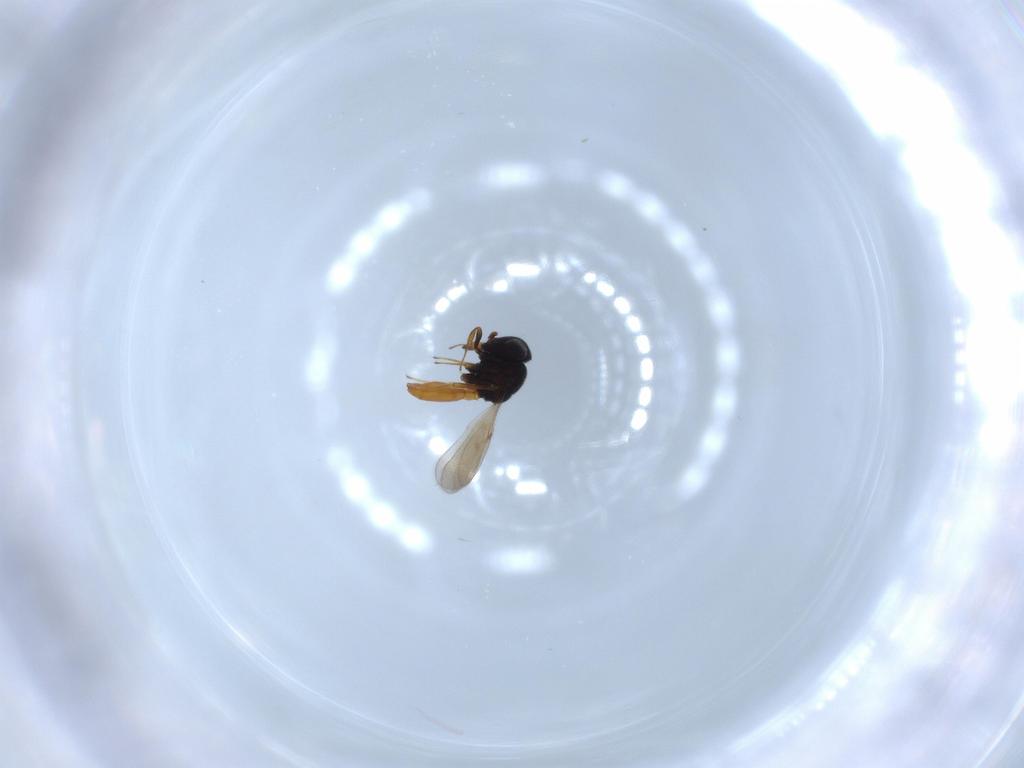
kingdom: Animalia
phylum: Arthropoda
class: Insecta
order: Hymenoptera
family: Scelionidae
